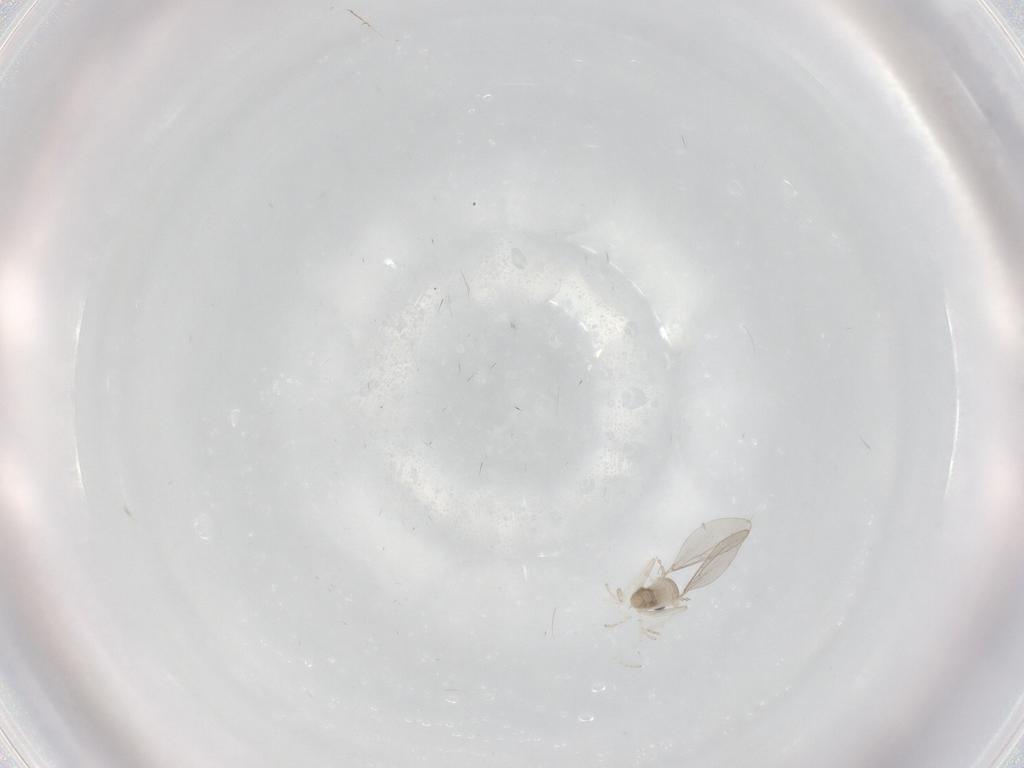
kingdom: Animalia
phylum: Arthropoda
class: Insecta
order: Diptera
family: Cecidomyiidae
